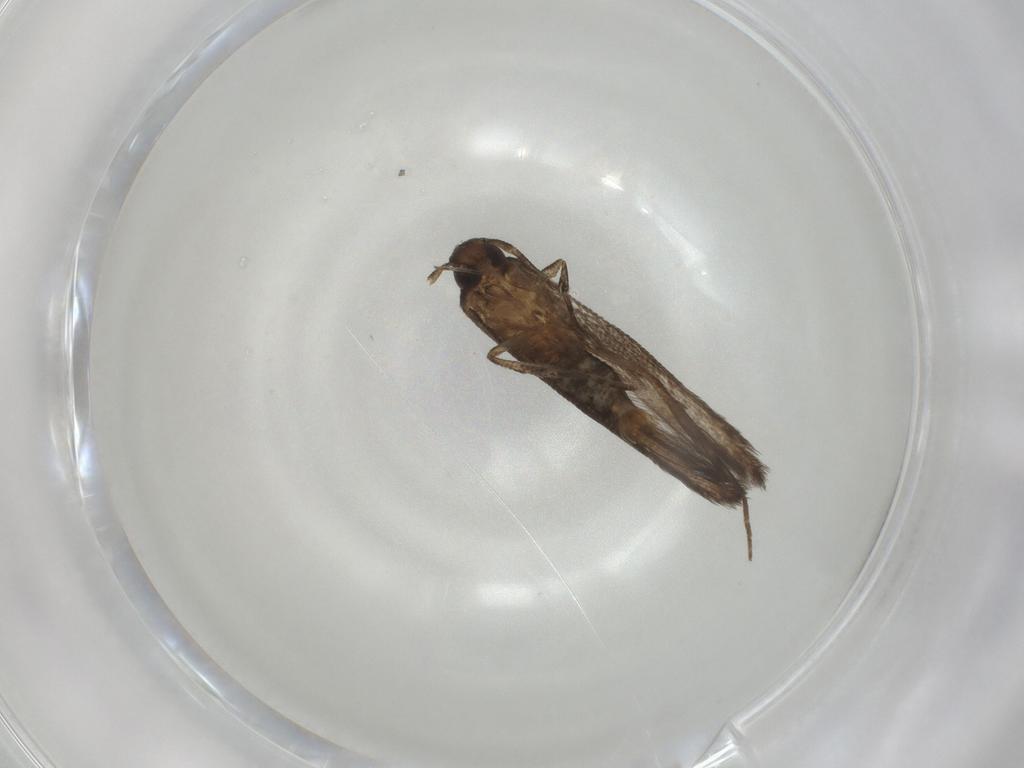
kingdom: Animalia
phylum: Arthropoda
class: Insecta
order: Lepidoptera
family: Cosmopterigidae
